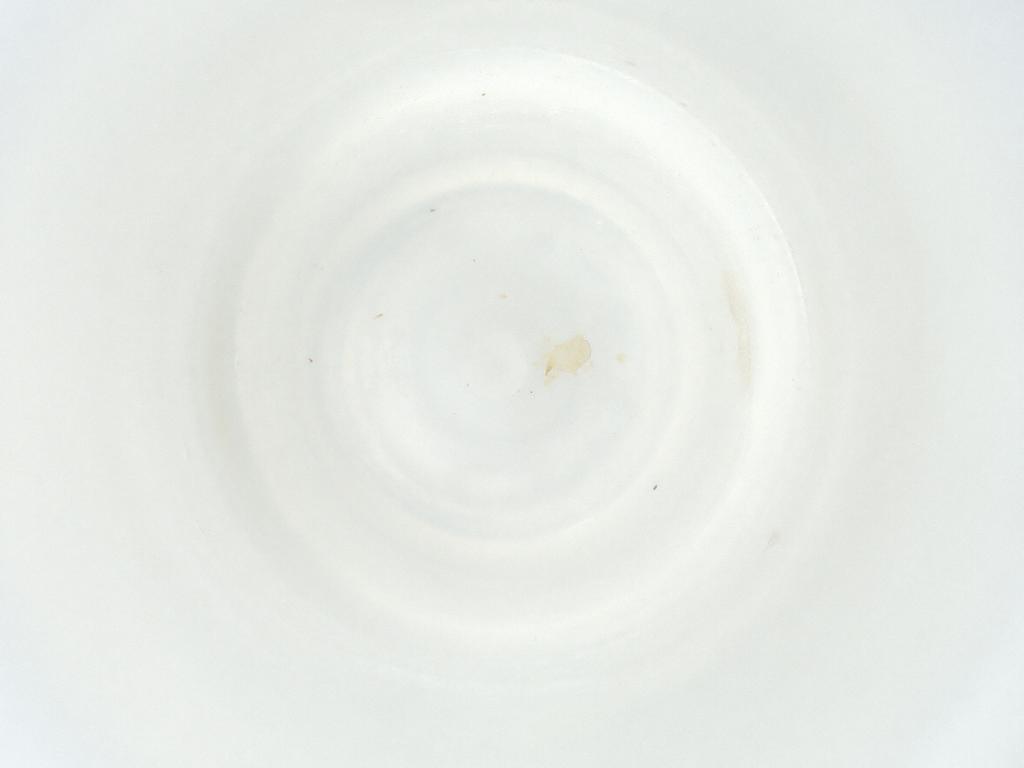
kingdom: Animalia
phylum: Arthropoda
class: Arachnida
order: Mesostigmata
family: Phytoseiidae
